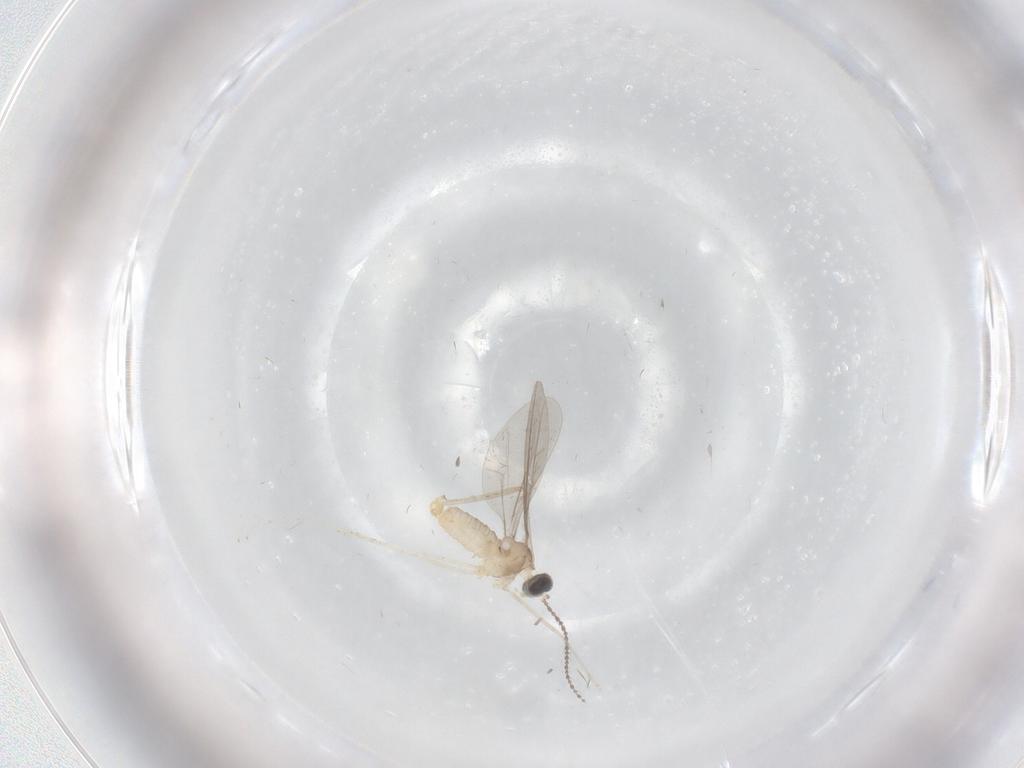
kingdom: Animalia
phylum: Arthropoda
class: Insecta
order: Diptera
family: Cecidomyiidae
